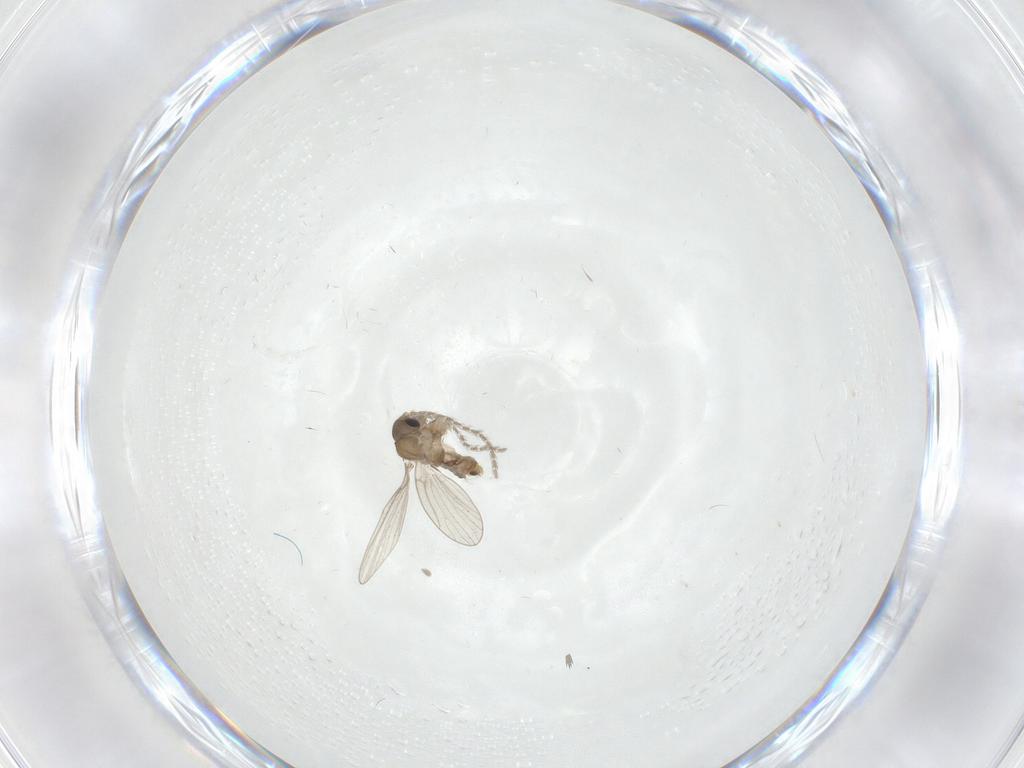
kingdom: Animalia
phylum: Arthropoda
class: Insecta
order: Diptera
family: Psychodidae
